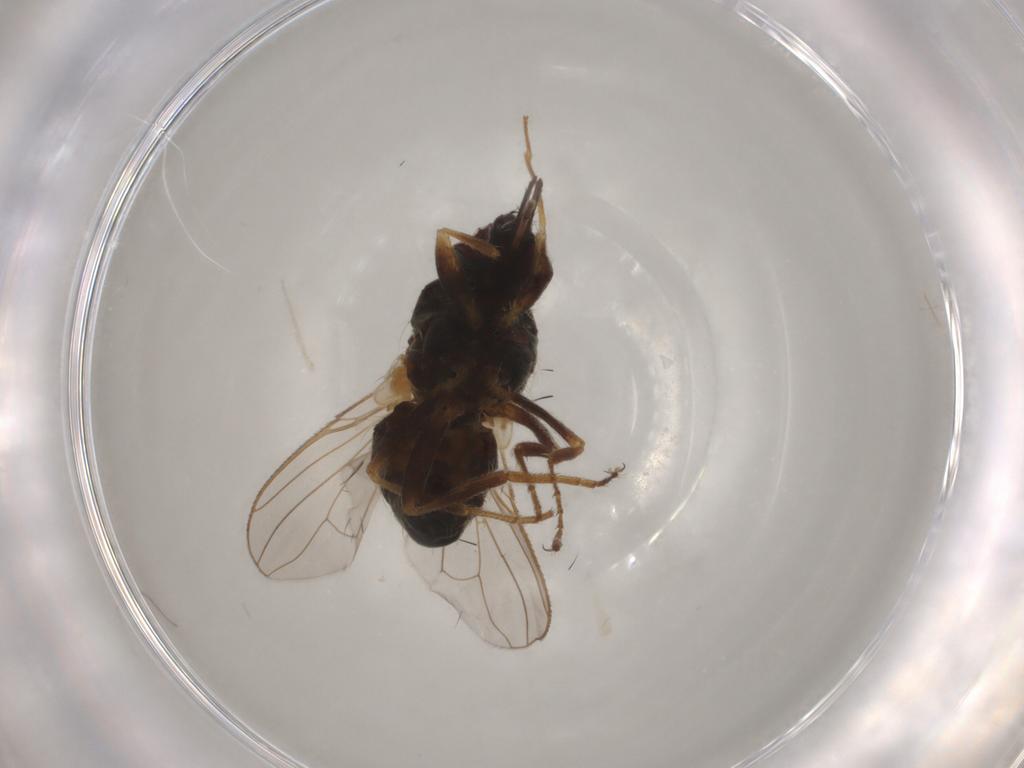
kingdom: Animalia
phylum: Arthropoda
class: Insecta
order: Diptera
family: Muscidae
